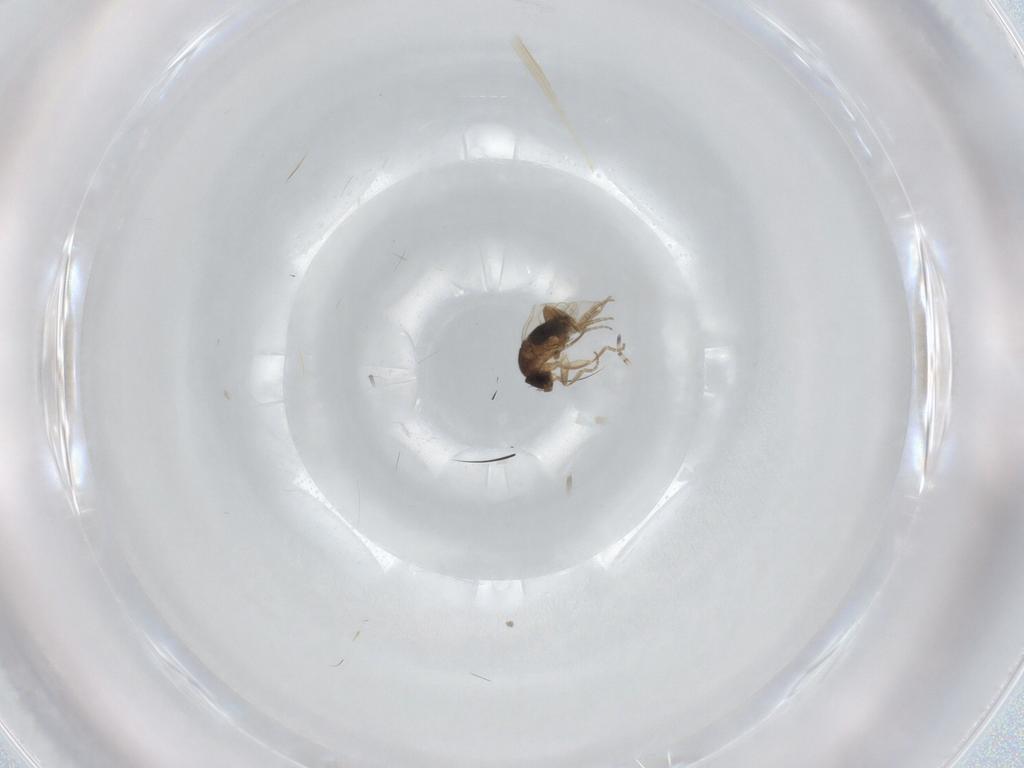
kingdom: Animalia
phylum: Arthropoda
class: Insecta
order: Diptera
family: Phoridae
